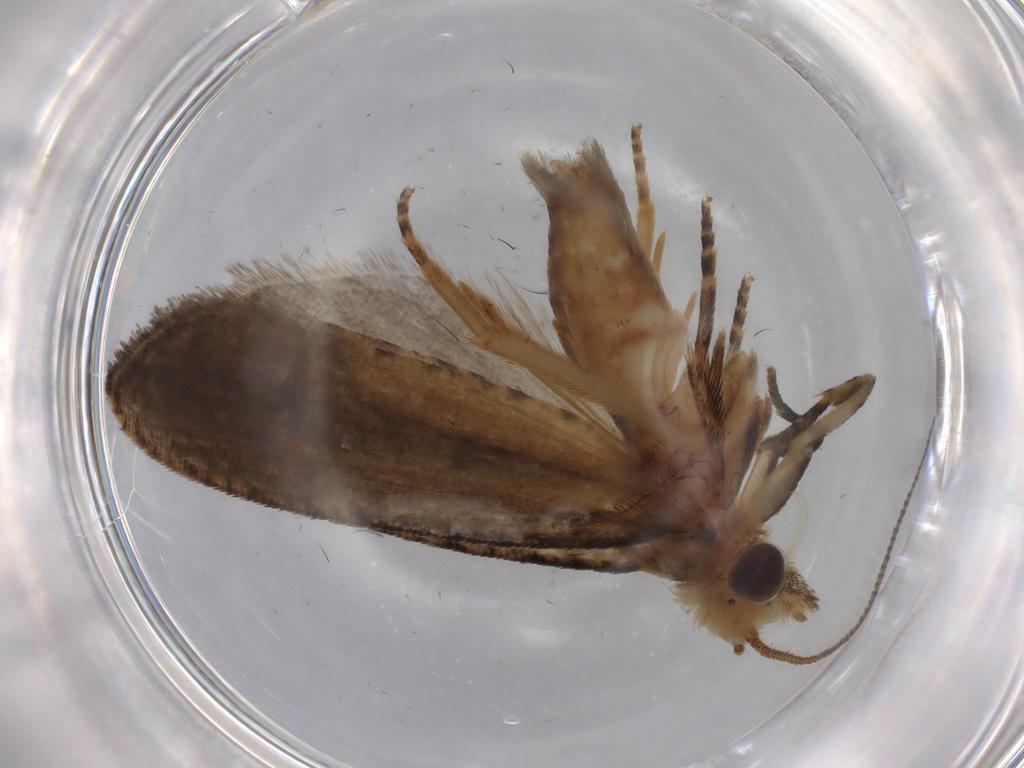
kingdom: Animalia
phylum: Arthropoda
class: Insecta
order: Lepidoptera
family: Tortricidae
